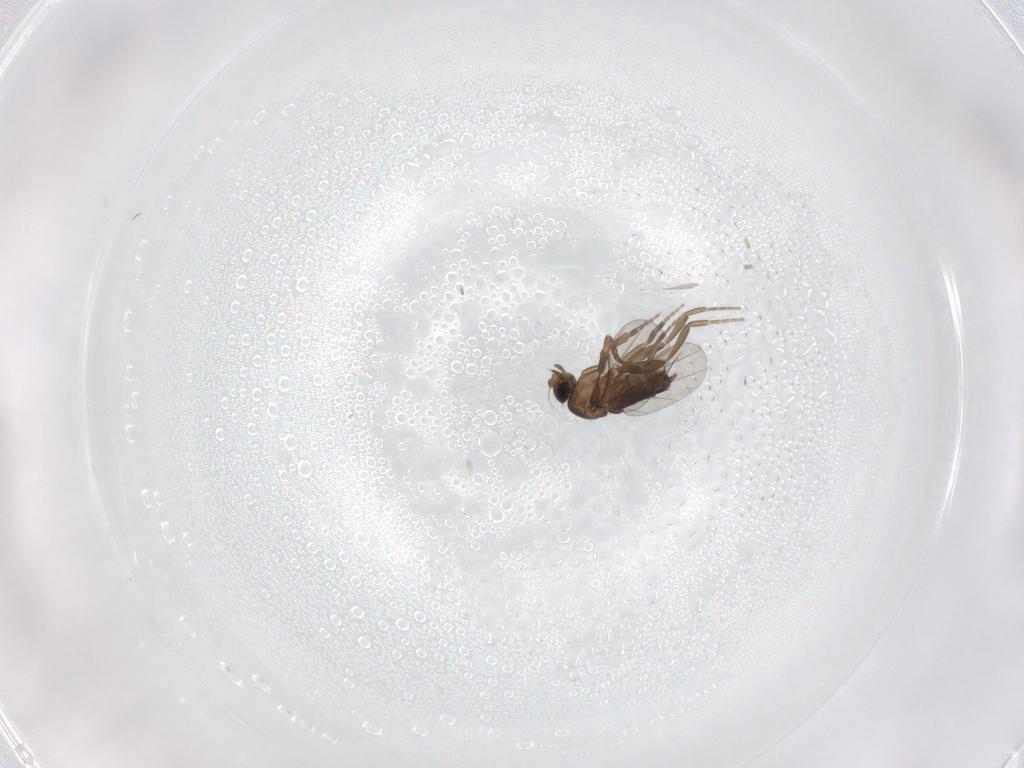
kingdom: Animalia
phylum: Arthropoda
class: Insecta
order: Diptera
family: Phoridae
